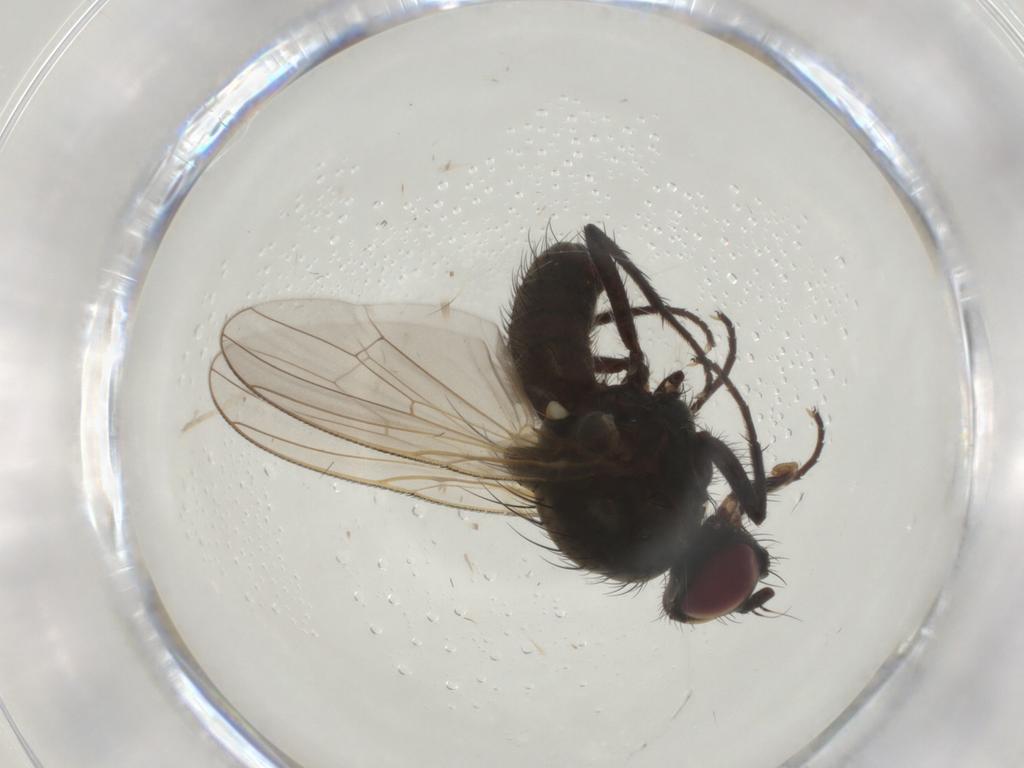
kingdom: Animalia
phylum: Arthropoda
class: Insecta
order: Diptera
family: Anthomyiidae
